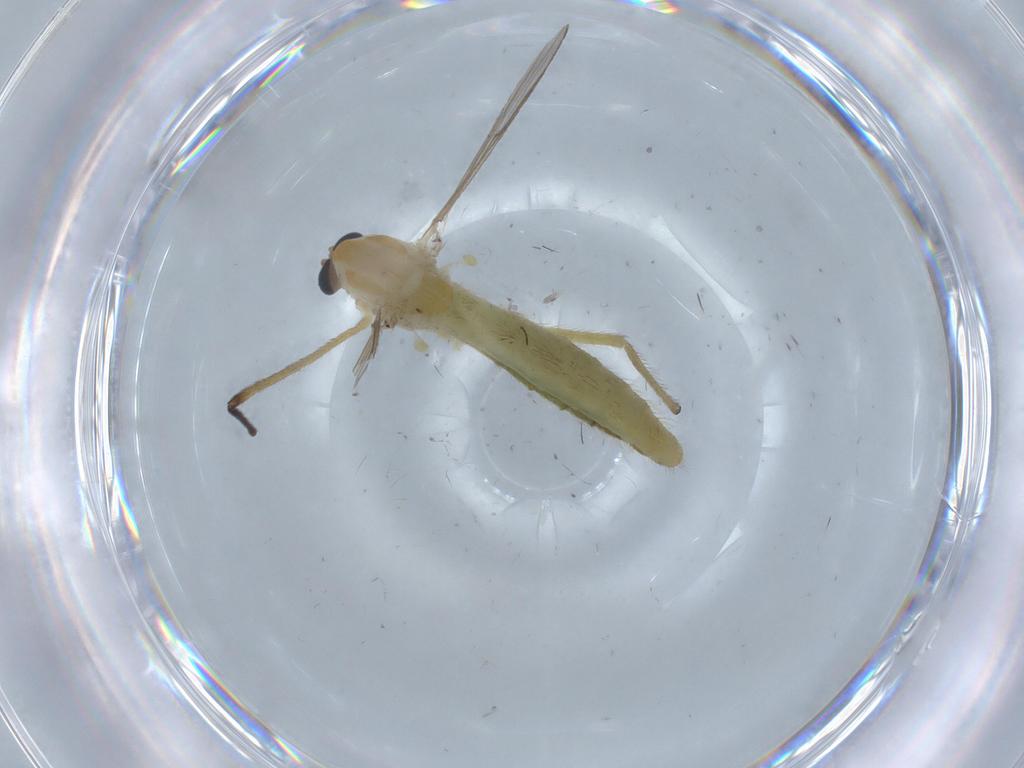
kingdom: Animalia
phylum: Arthropoda
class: Insecta
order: Diptera
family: Chironomidae
